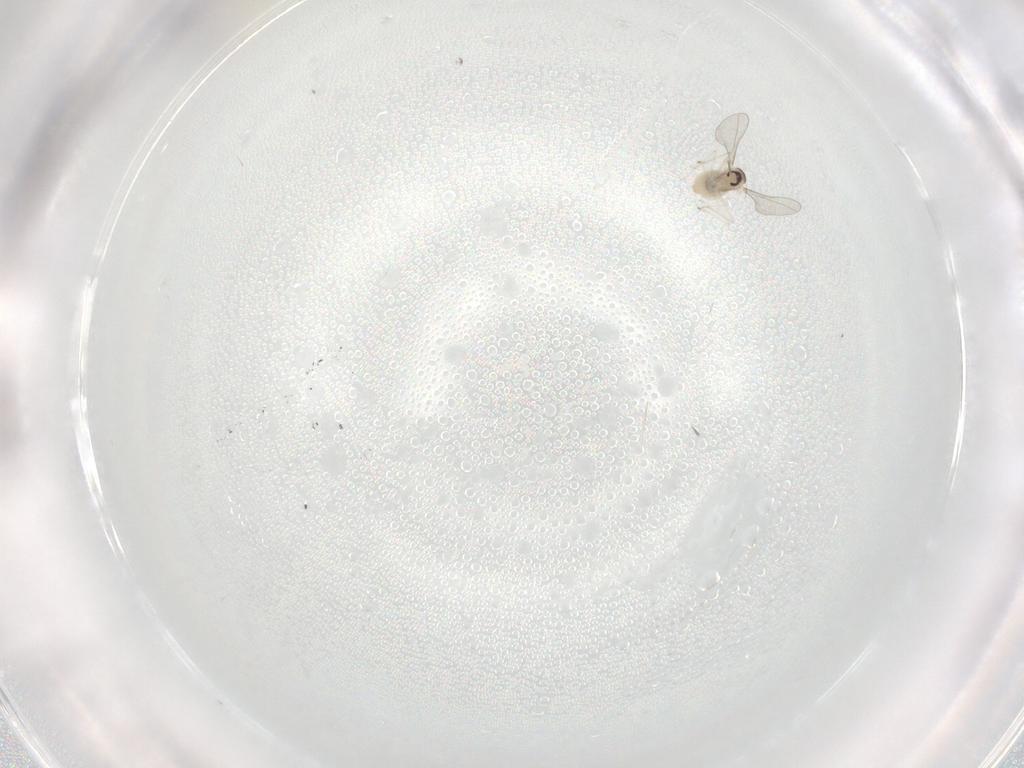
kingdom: Animalia
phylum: Arthropoda
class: Insecta
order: Diptera
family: Cecidomyiidae
